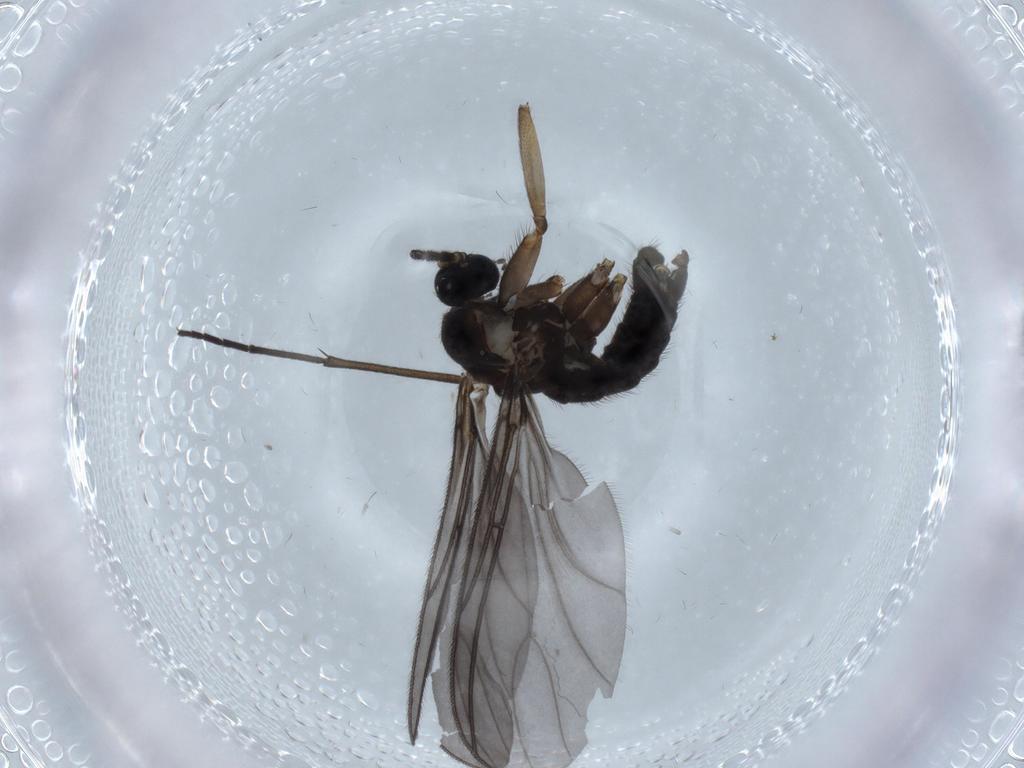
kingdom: Animalia
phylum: Arthropoda
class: Insecta
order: Diptera
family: Sciaridae
